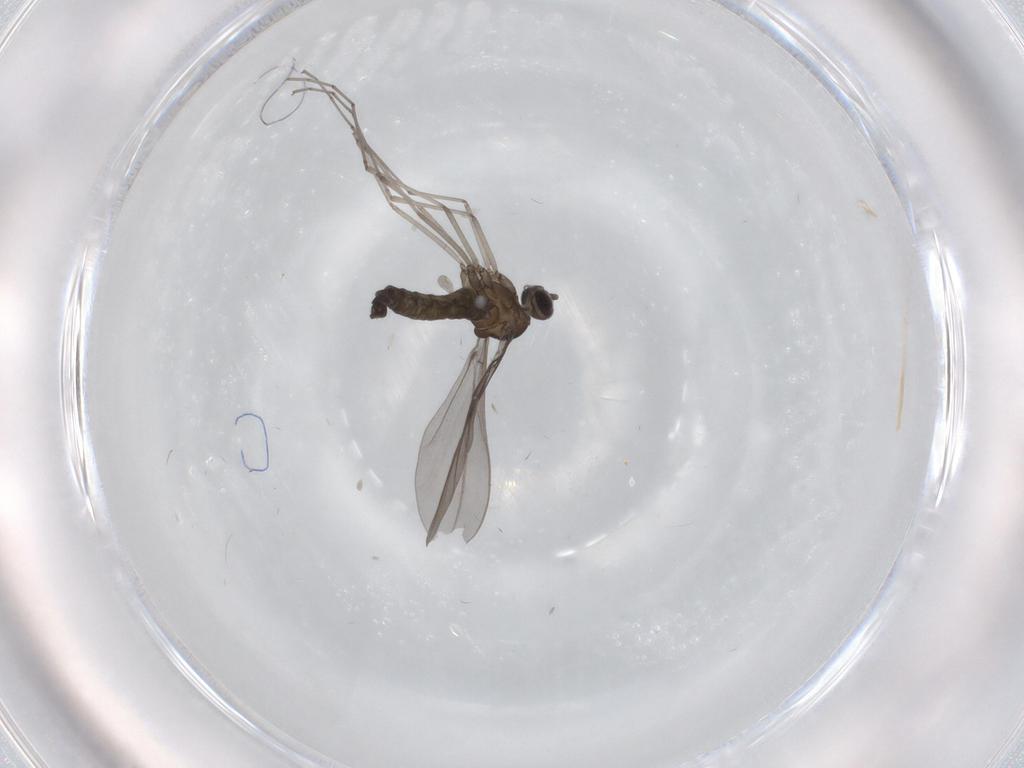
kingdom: Animalia
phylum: Arthropoda
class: Insecta
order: Diptera
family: Cecidomyiidae
